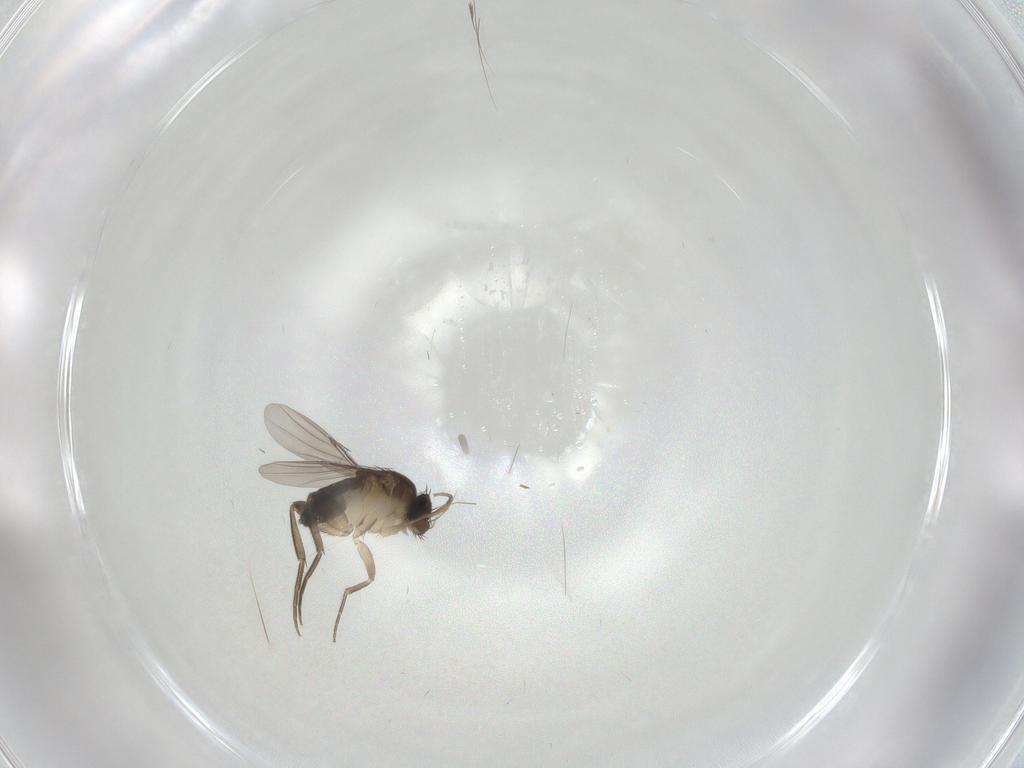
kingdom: Animalia
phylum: Arthropoda
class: Insecta
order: Diptera
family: Phoridae
